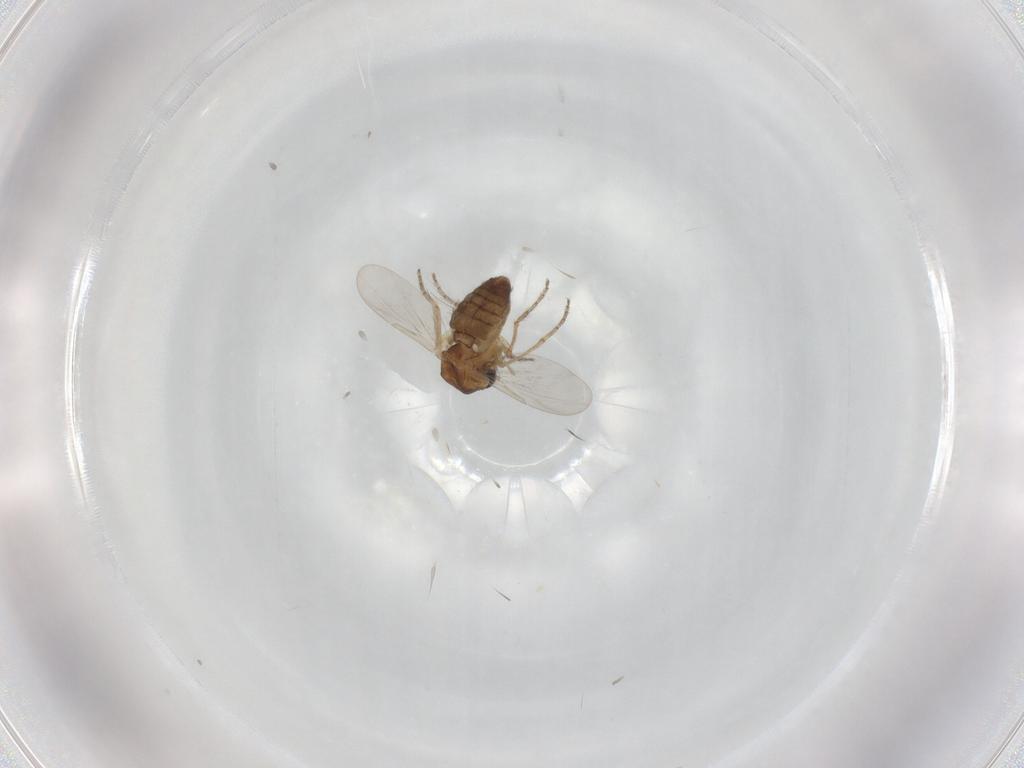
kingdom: Animalia
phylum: Arthropoda
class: Insecta
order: Diptera
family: Ceratopogonidae
